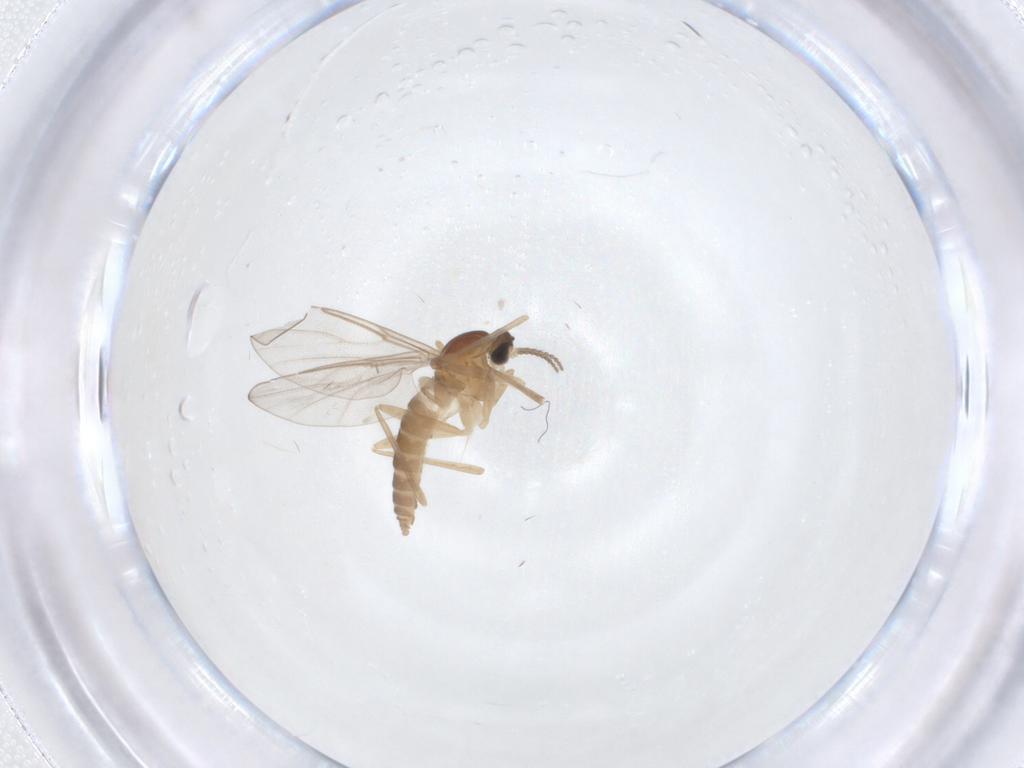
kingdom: Animalia
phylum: Arthropoda
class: Insecta
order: Diptera
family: Cecidomyiidae
